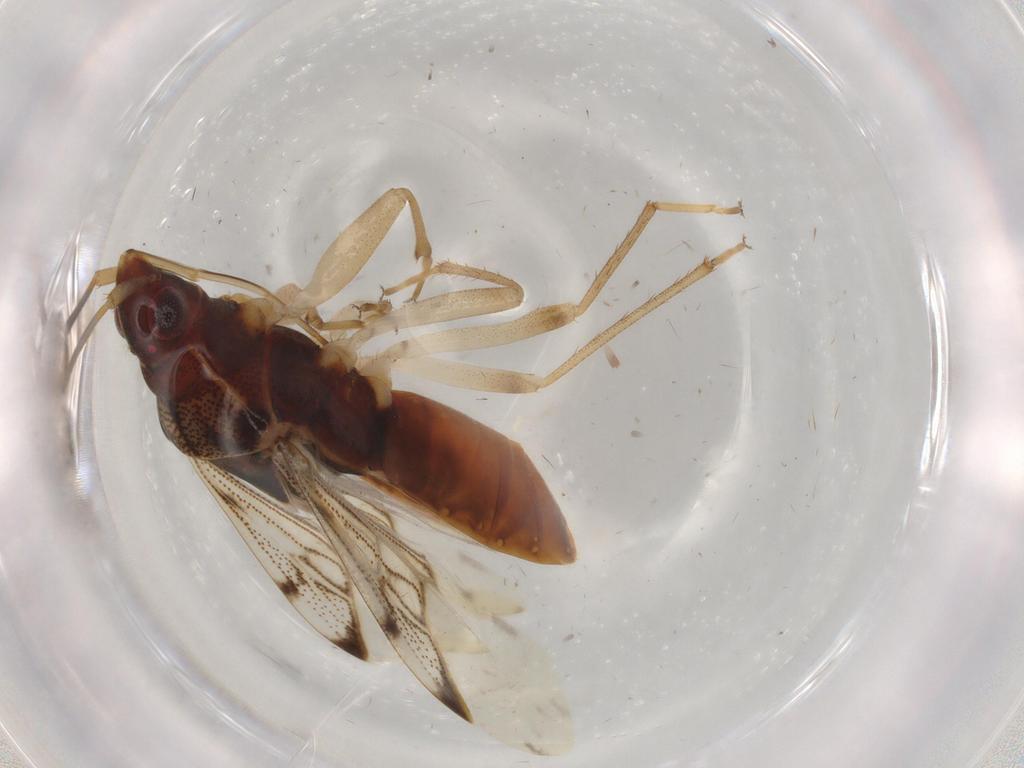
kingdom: Animalia
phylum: Arthropoda
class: Insecta
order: Hemiptera
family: Rhyparochromidae
